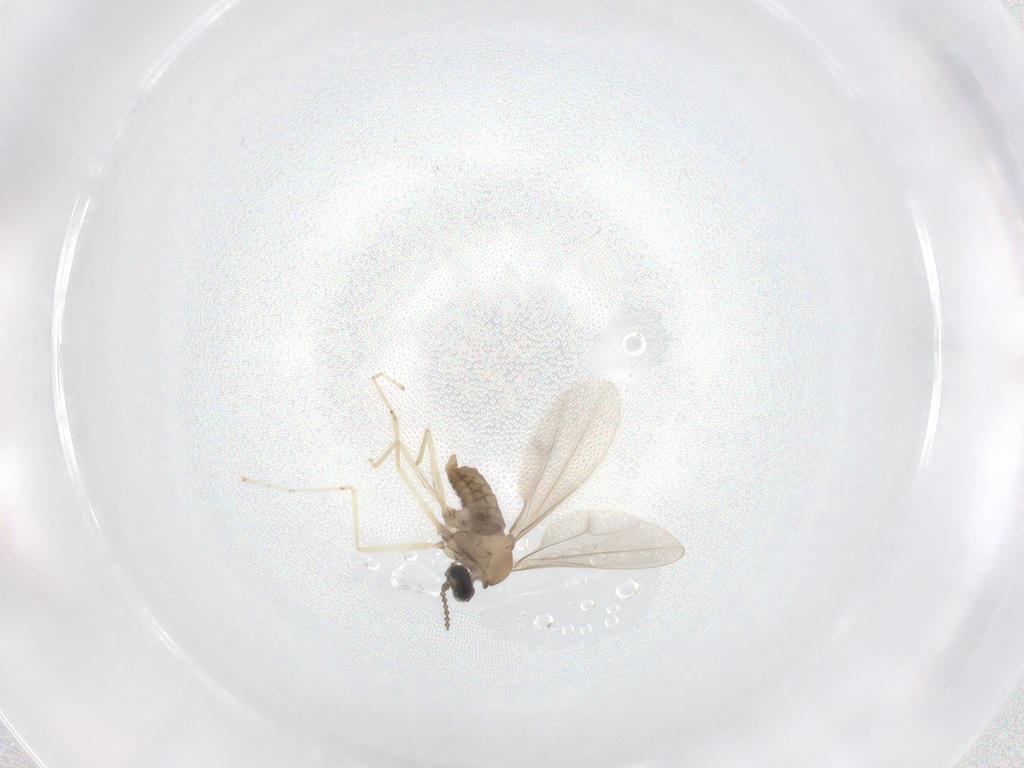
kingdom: Animalia
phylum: Arthropoda
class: Insecta
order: Diptera
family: Cecidomyiidae
